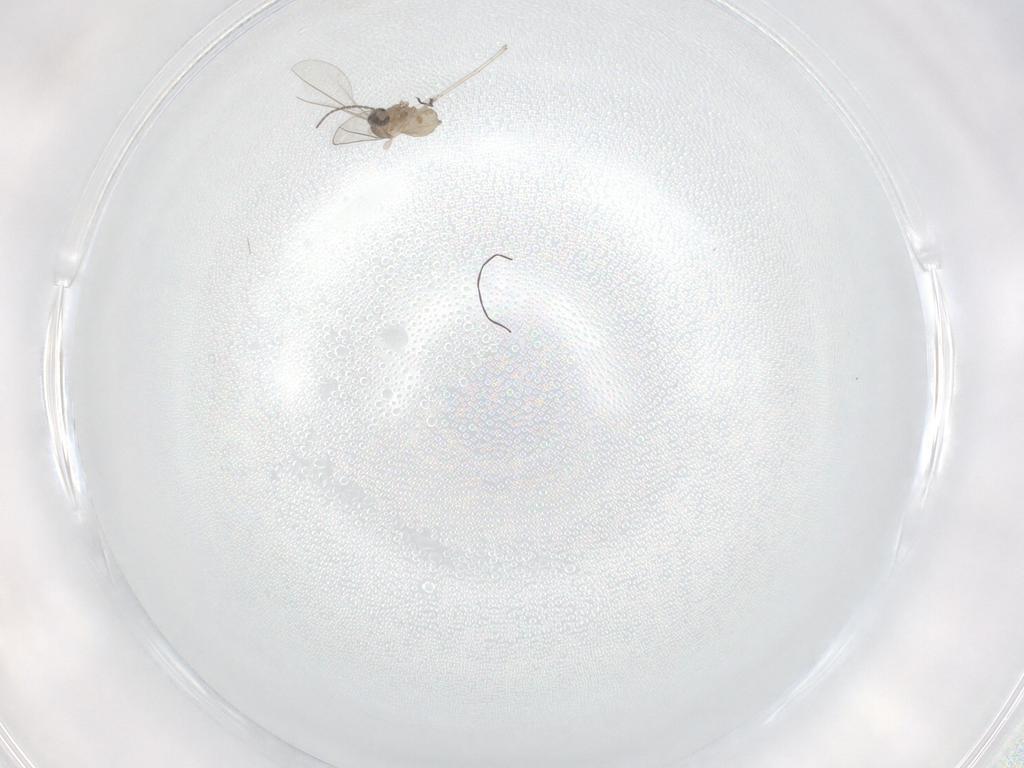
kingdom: Animalia
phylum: Arthropoda
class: Insecta
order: Diptera
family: Cecidomyiidae
